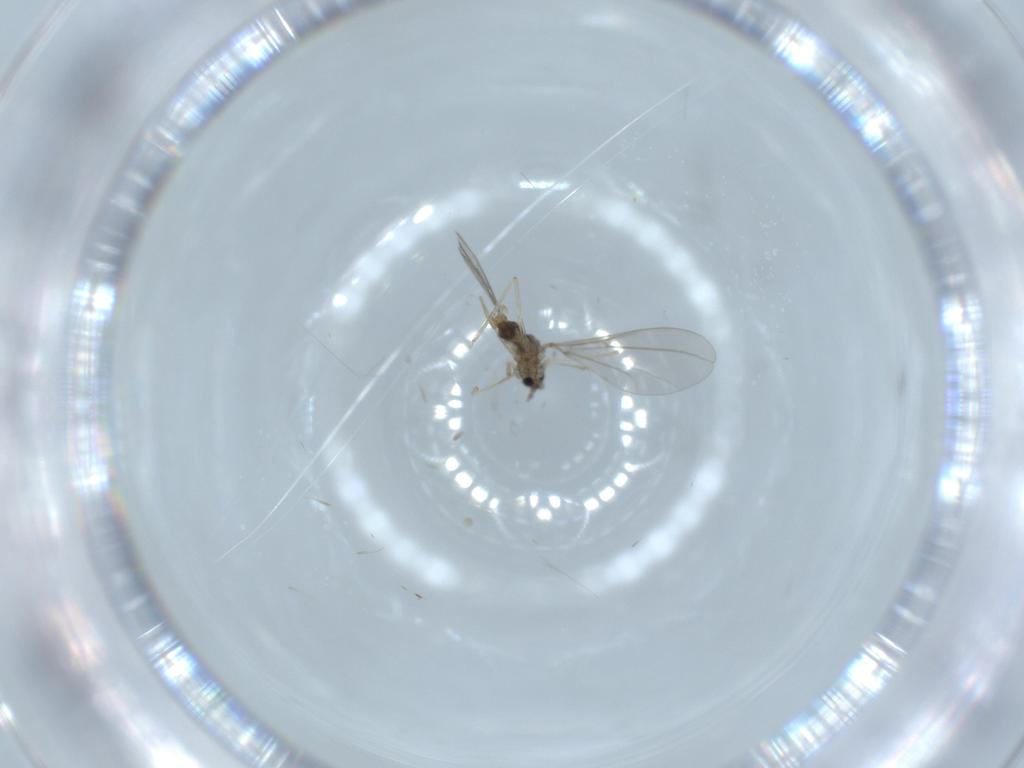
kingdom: Animalia
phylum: Arthropoda
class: Insecta
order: Diptera
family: Cecidomyiidae
